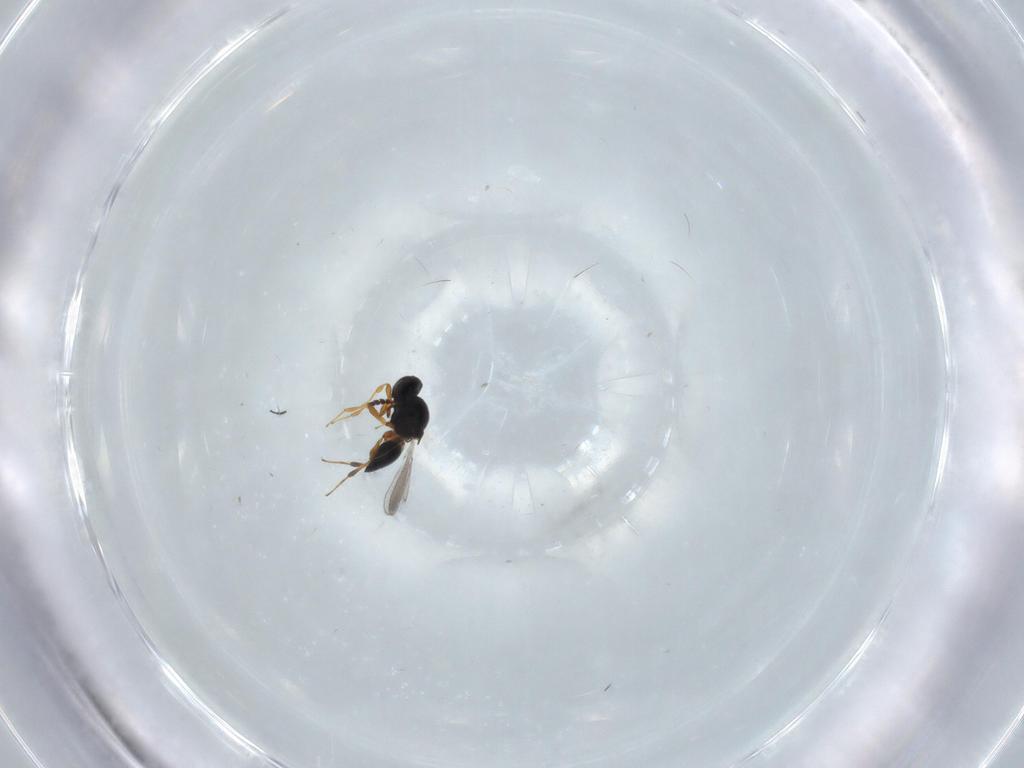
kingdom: Animalia
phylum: Arthropoda
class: Insecta
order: Hymenoptera
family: Platygastridae
